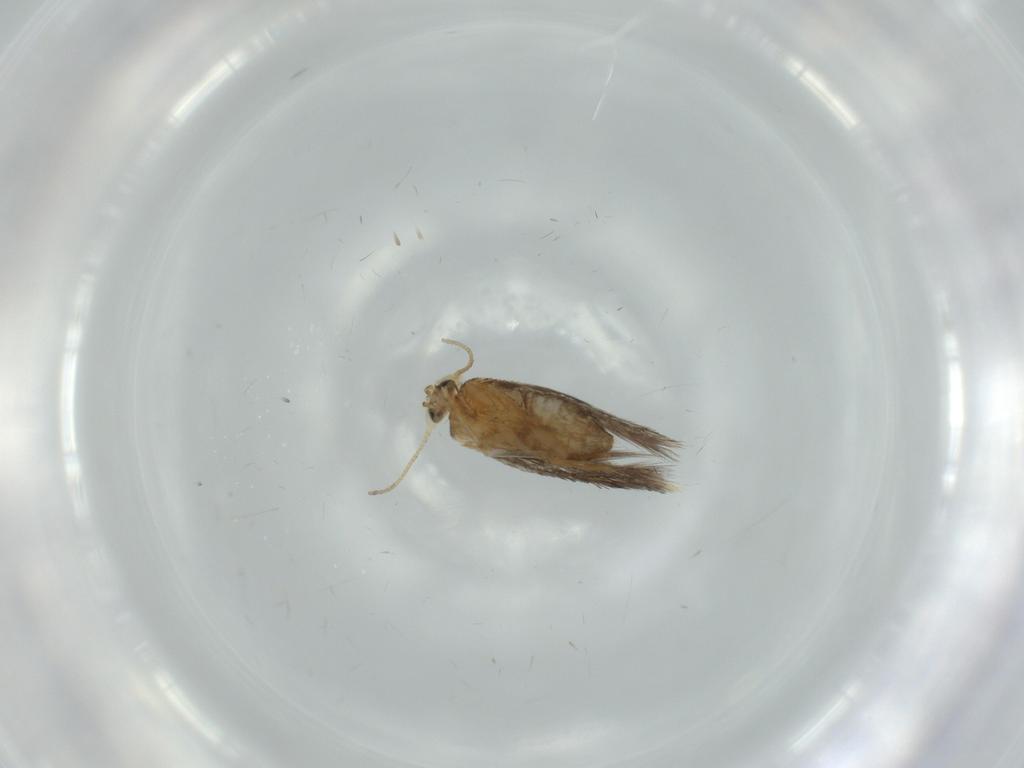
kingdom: Animalia
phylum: Arthropoda
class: Insecta
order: Lepidoptera
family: Nepticulidae
